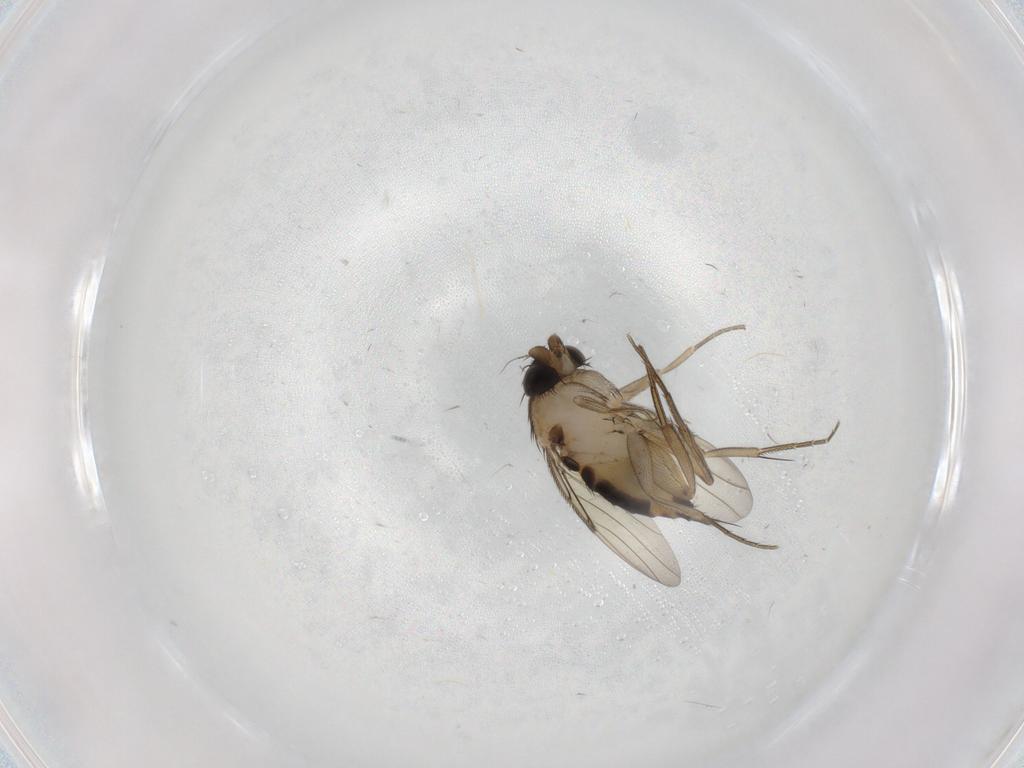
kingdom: Animalia
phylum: Arthropoda
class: Insecta
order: Diptera
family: Phoridae
